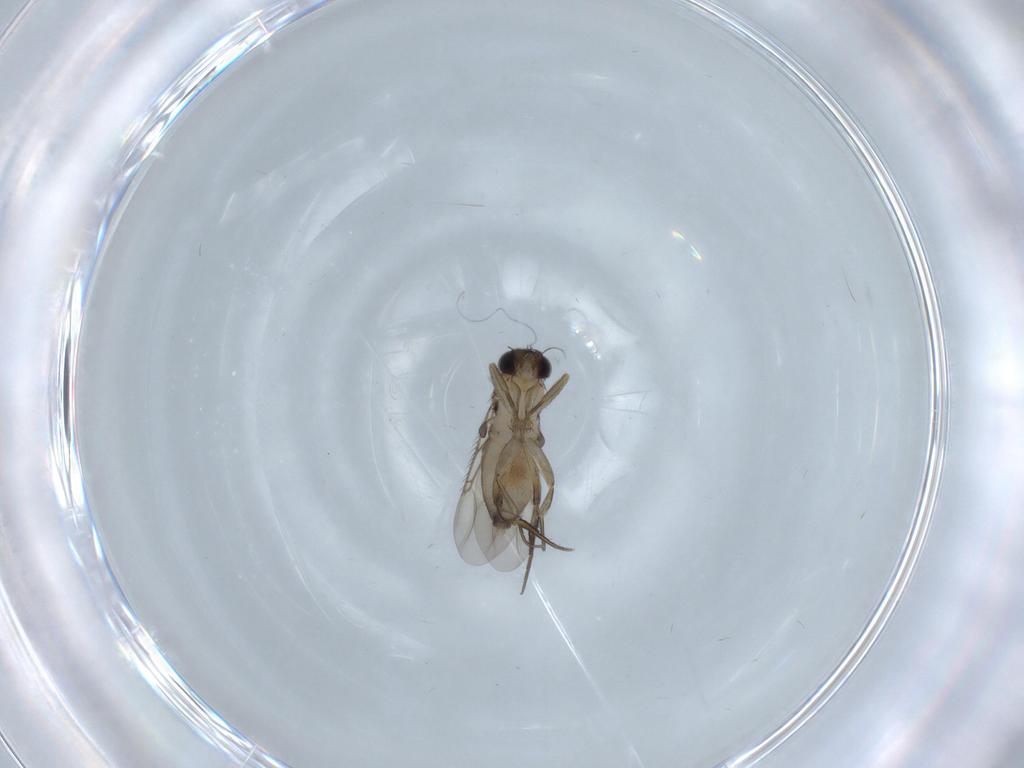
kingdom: Animalia
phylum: Arthropoda
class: Insecta
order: Diptera
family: Phoridae
